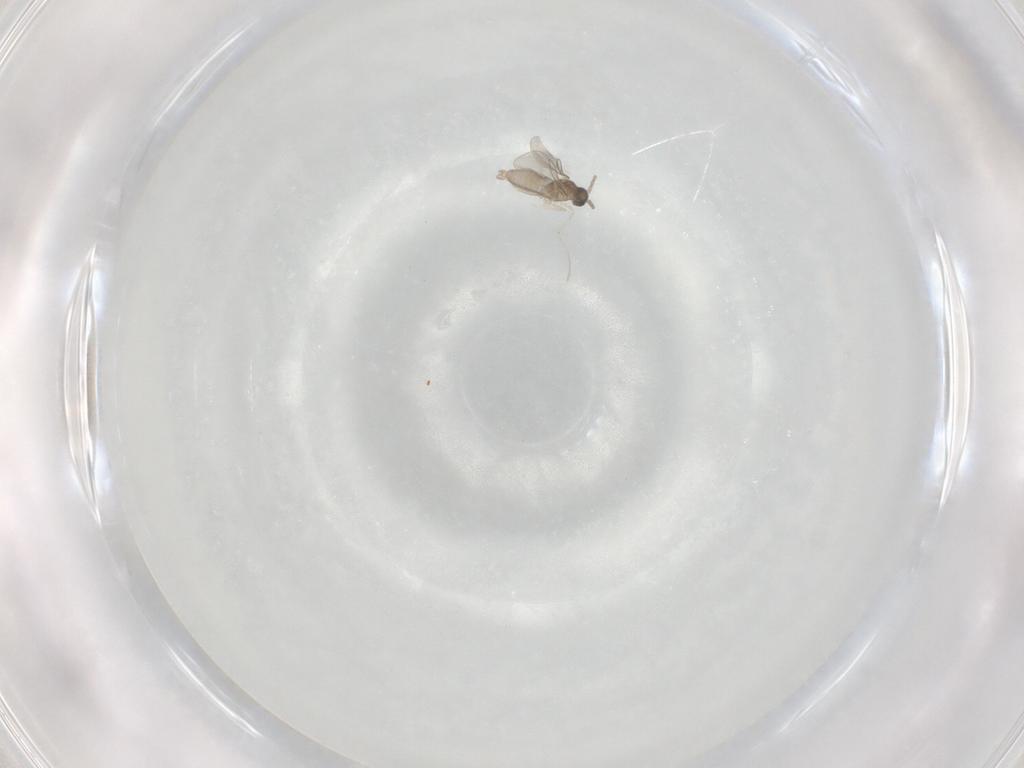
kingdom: Animalia
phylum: Arthropoda
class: Insecta
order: Diptera
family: Cecidomyiidae
